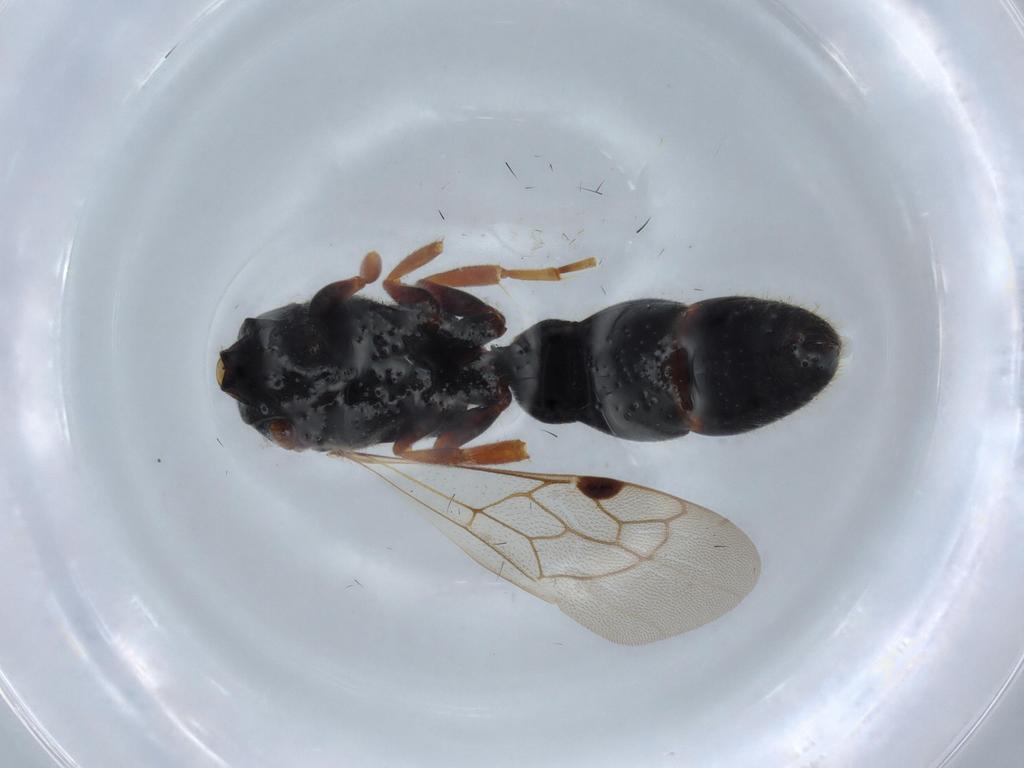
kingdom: Animalia
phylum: Arthropoda
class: Insecta
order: Hymenoptera
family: Tiphiidae
